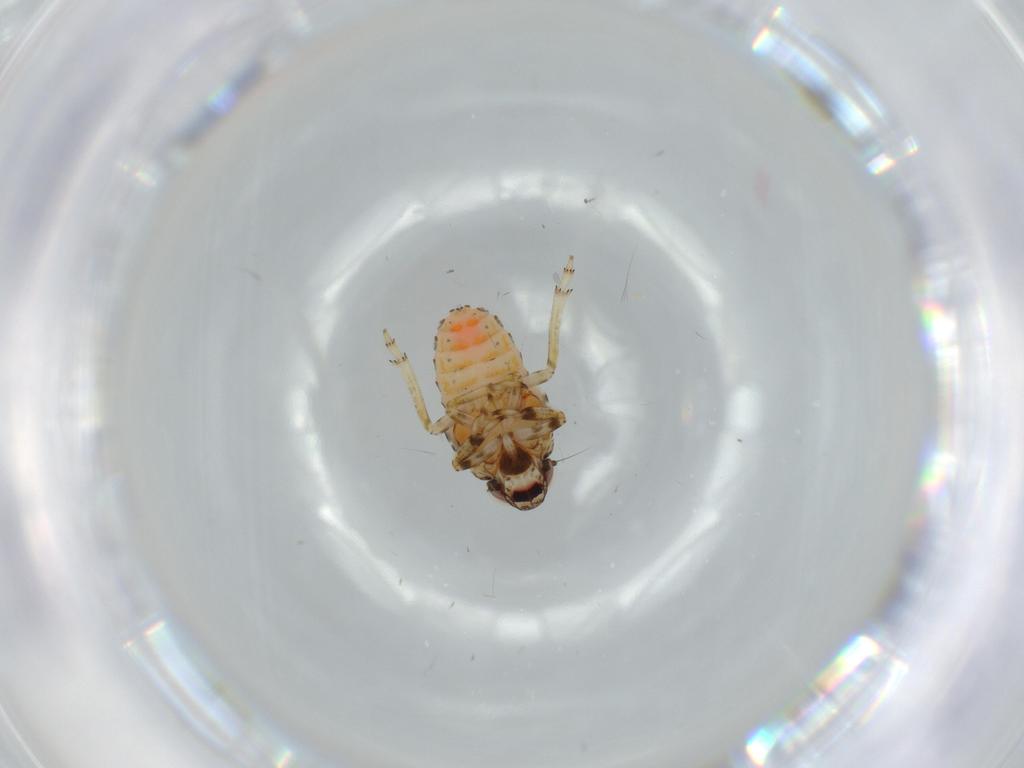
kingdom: Animalia
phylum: Arthropoda
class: Insecta
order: Hemiptera
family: Issidae
